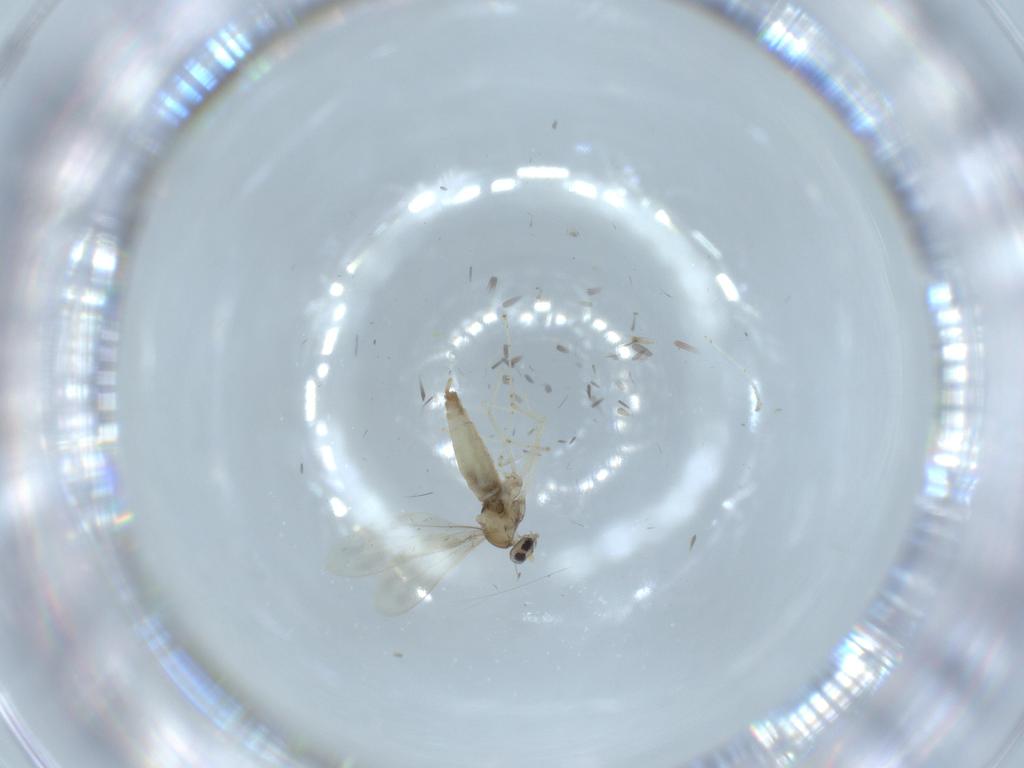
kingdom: Animalia
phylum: Arthropoda
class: Insecta
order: Diptera
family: Cecidomyiidae
